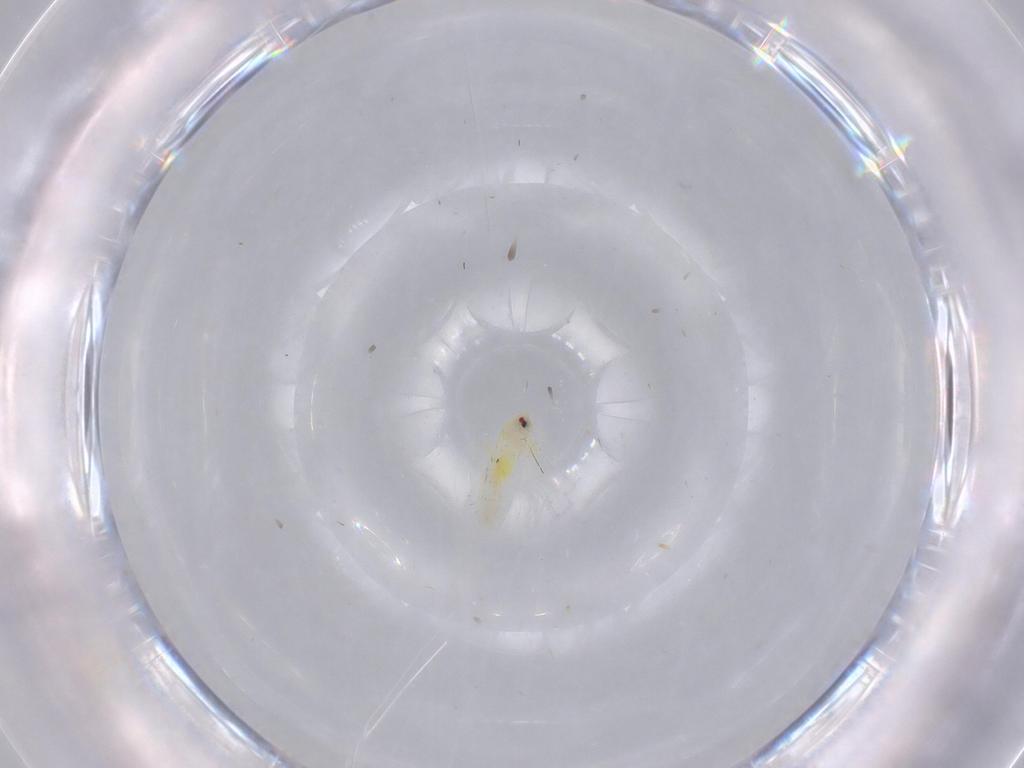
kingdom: Animalia
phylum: Arthropoda
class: Insecta
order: Hemiptera
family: Aleyrodidae
